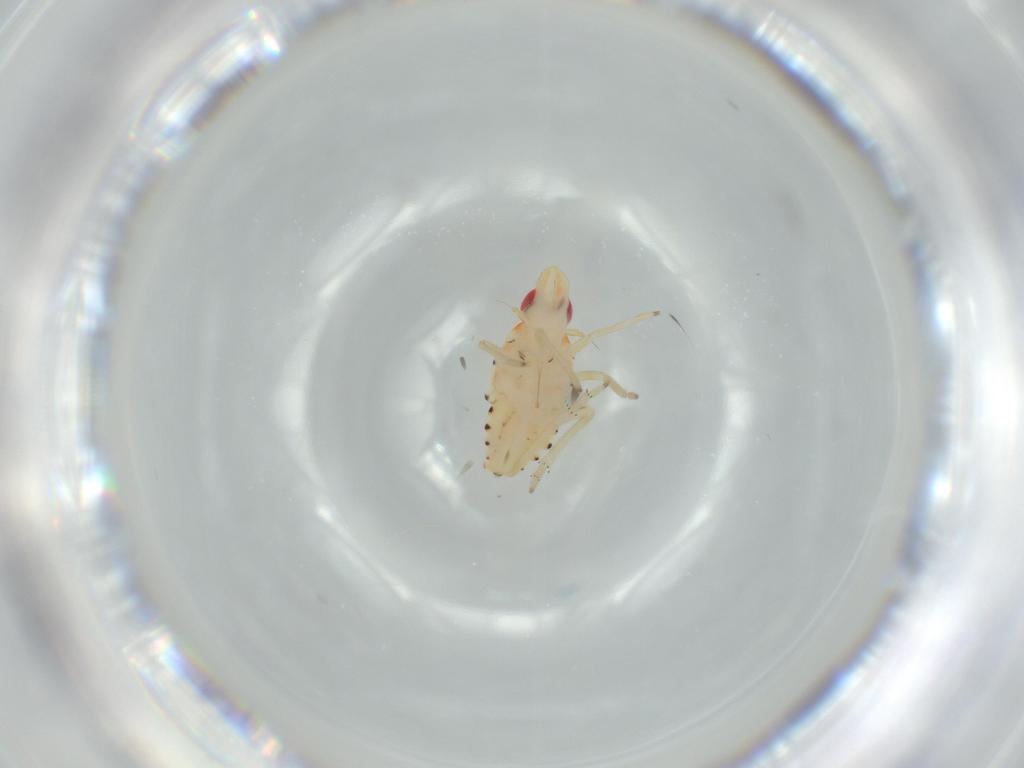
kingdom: Animalia
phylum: Arthropoda
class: Insecta
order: Hemiptera
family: Tropiduchidae
